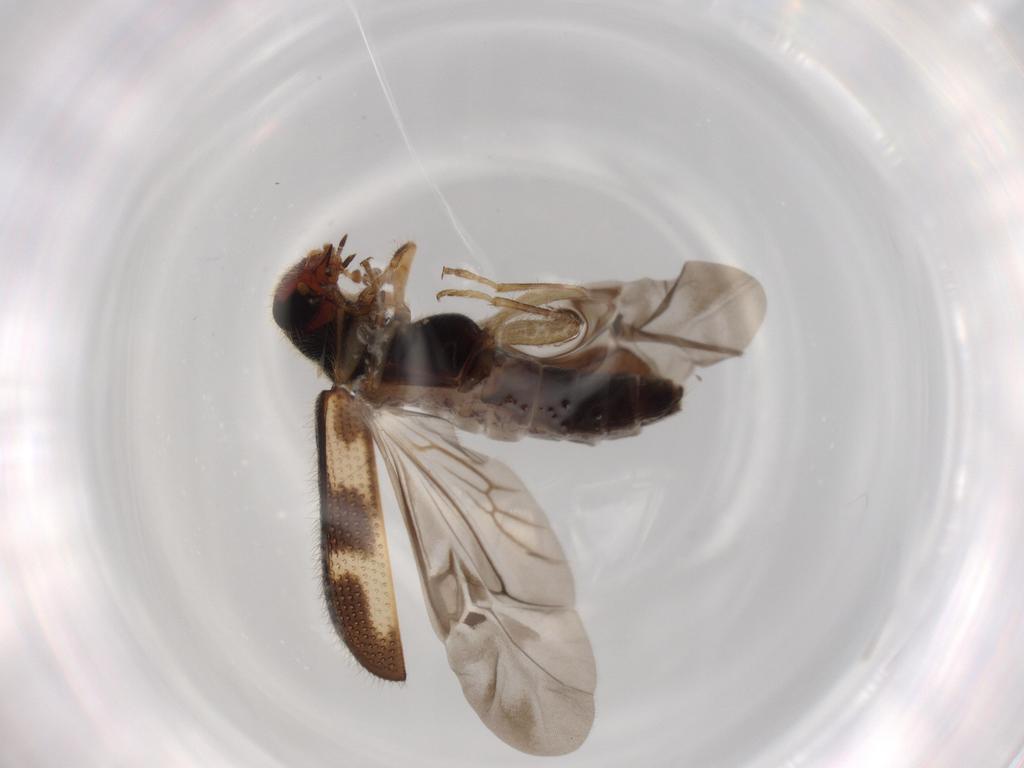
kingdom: Animalia
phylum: Arthropoda
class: Insecta
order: Coleoptera
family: Cleridae
